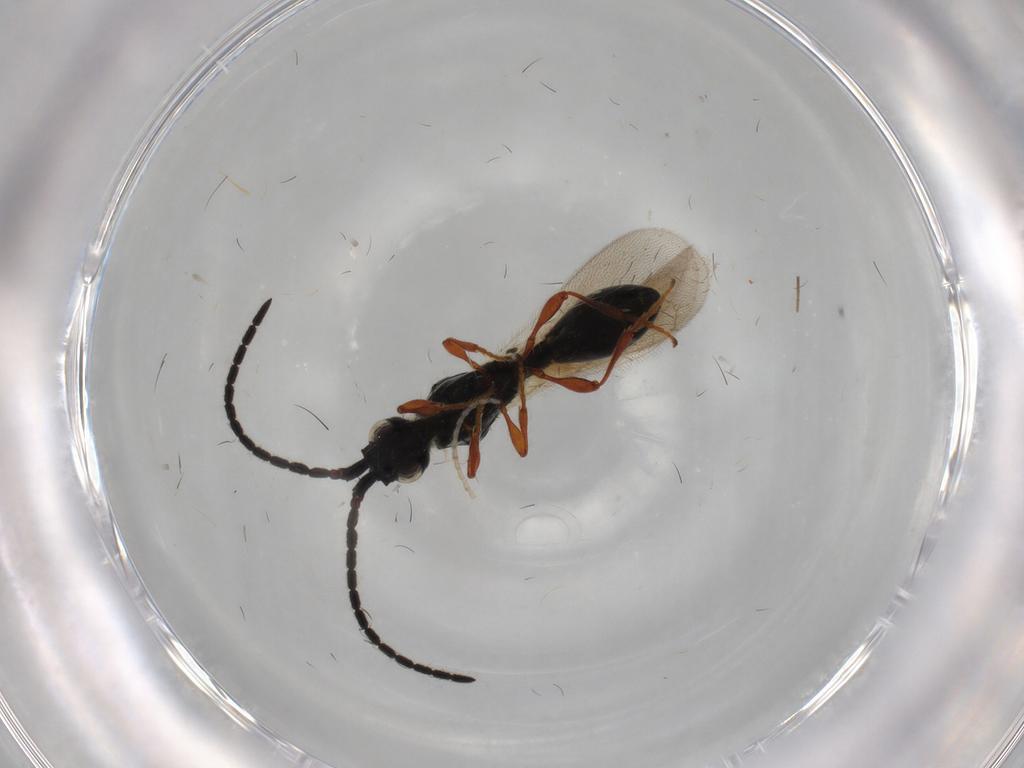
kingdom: Animalia
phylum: Arthropoda
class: Insecta
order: Hymenoptera
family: Diapriidae
